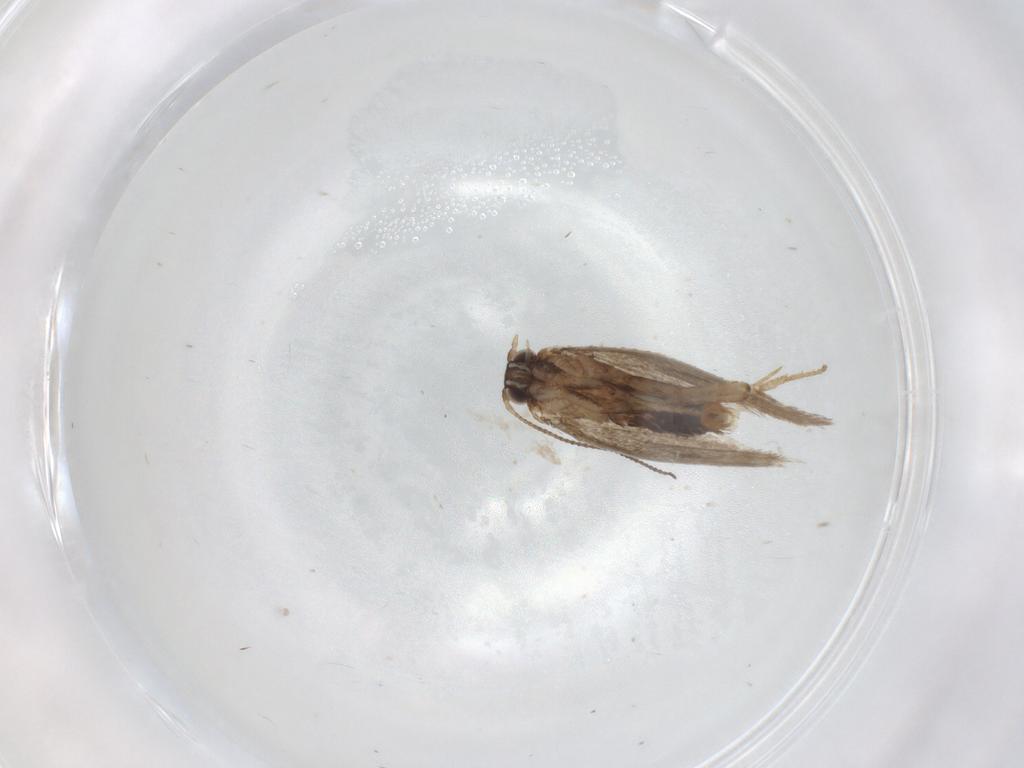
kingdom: Animalia
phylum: Arthropoda
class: Insecta
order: Lepidoptera
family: Nepticulidae
